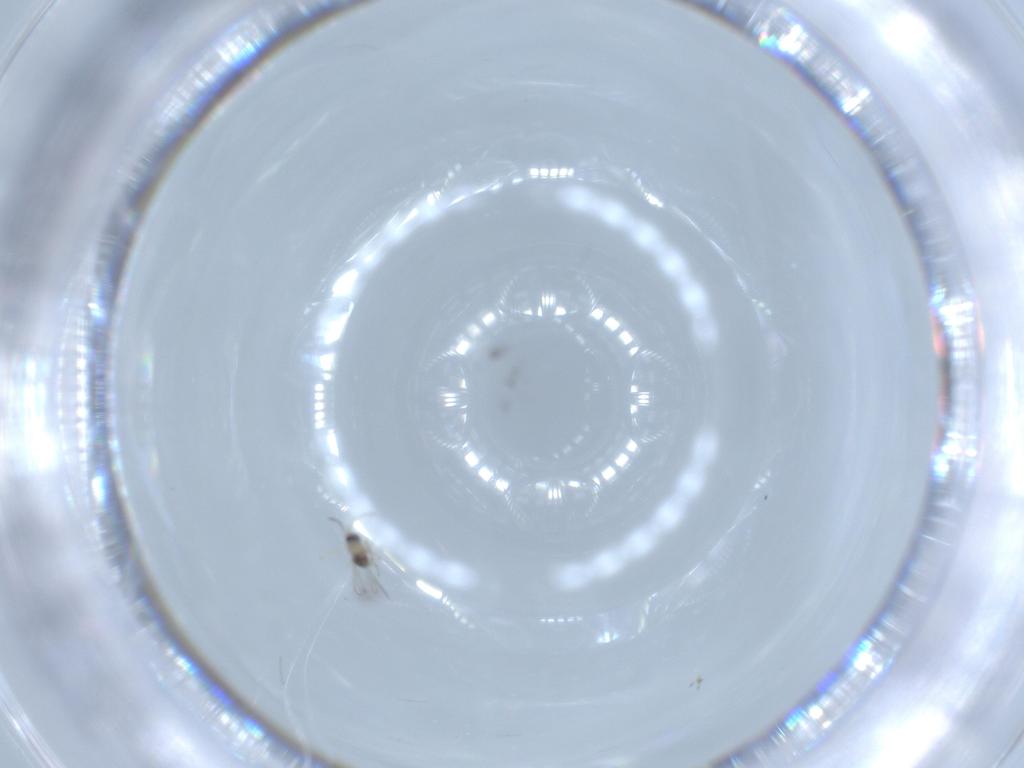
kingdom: Animalia
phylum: Arthropoda
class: Insecta
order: Hymenoptera
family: Mymaridae
